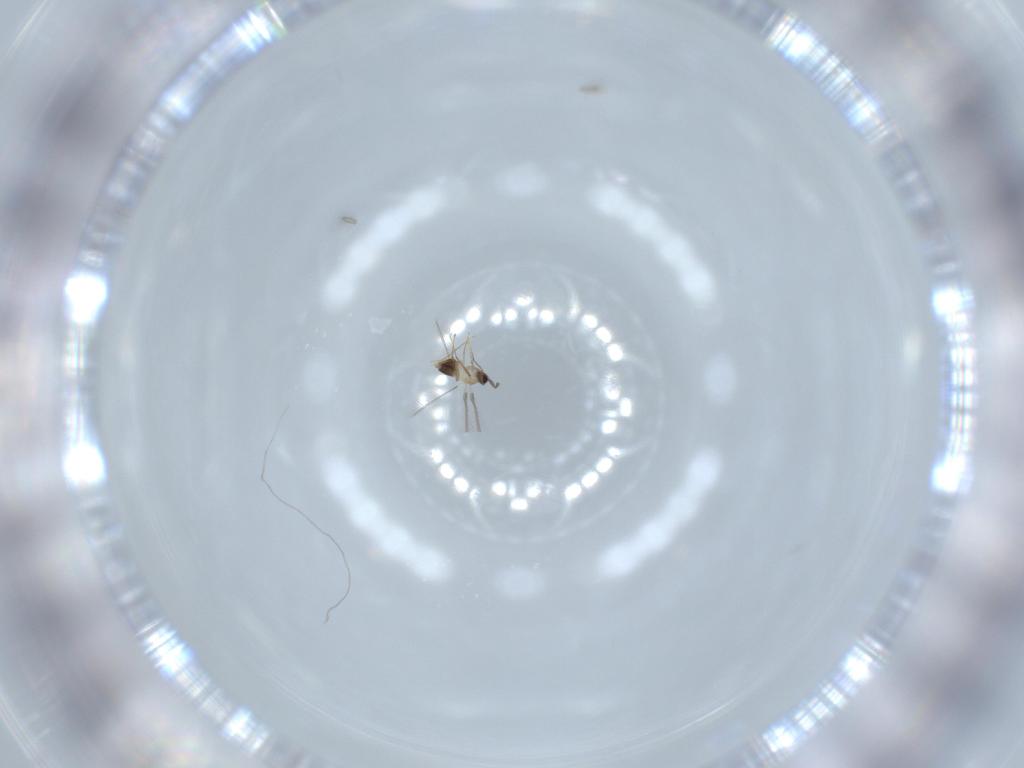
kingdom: Animalia
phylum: Arthropoda
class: Insecta
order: Hymenoptera
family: Mymaridae
